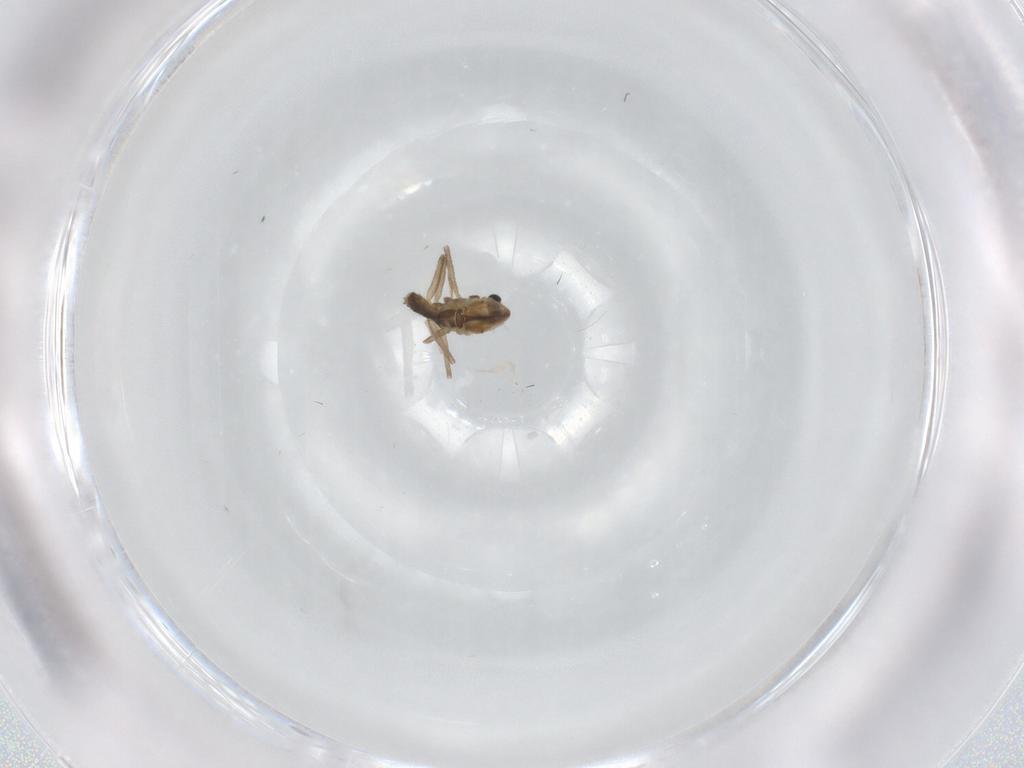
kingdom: Animalia
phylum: Arthropoda
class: Insecta
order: Diptera
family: Chironomidae
